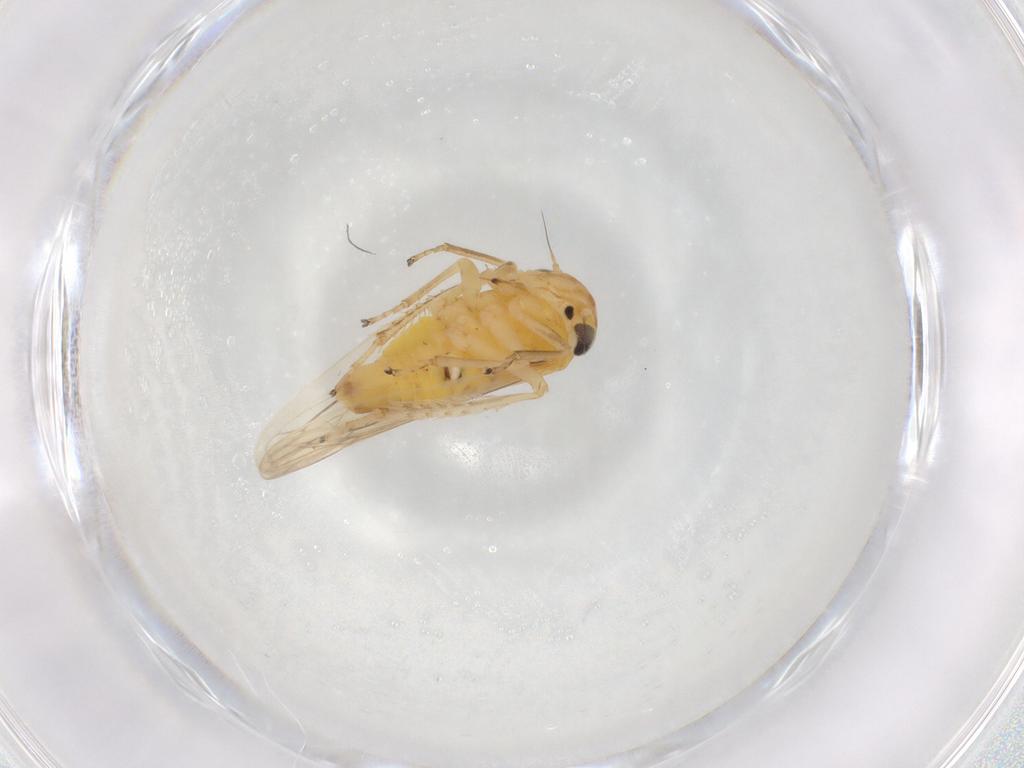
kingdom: Animalia
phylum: Arthropoda
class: Insecta
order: Hemiptera
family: Cicadellidae
